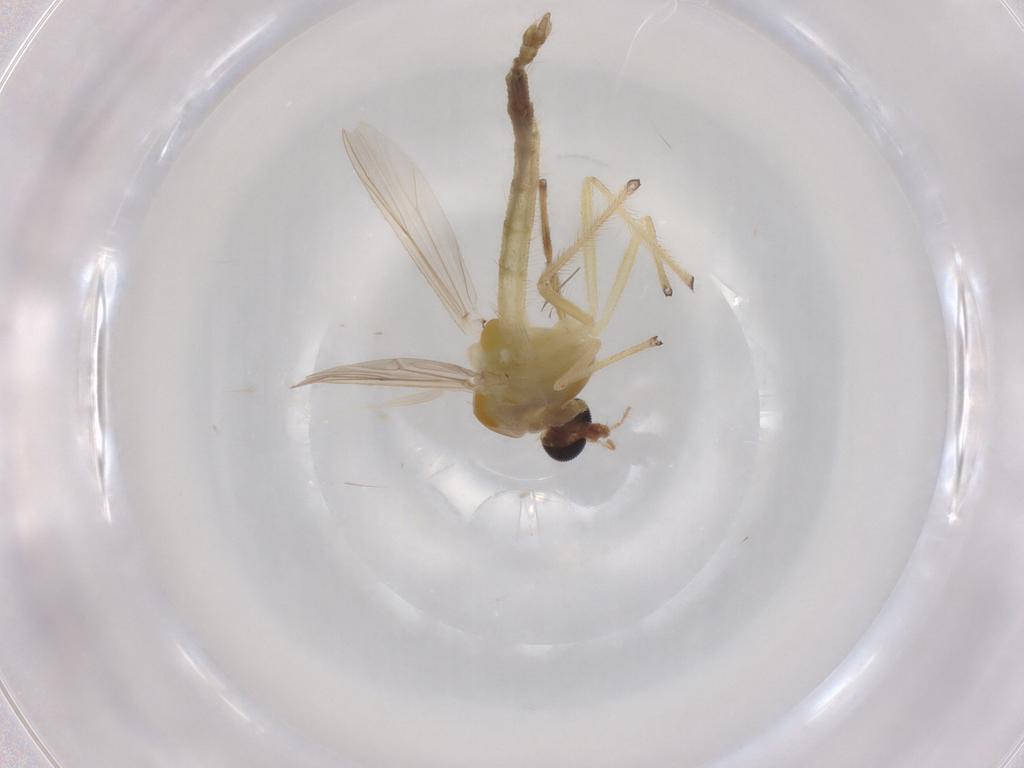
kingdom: Animalia
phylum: Arthropoda
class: Insecta
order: Diptera
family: Chironomidae
